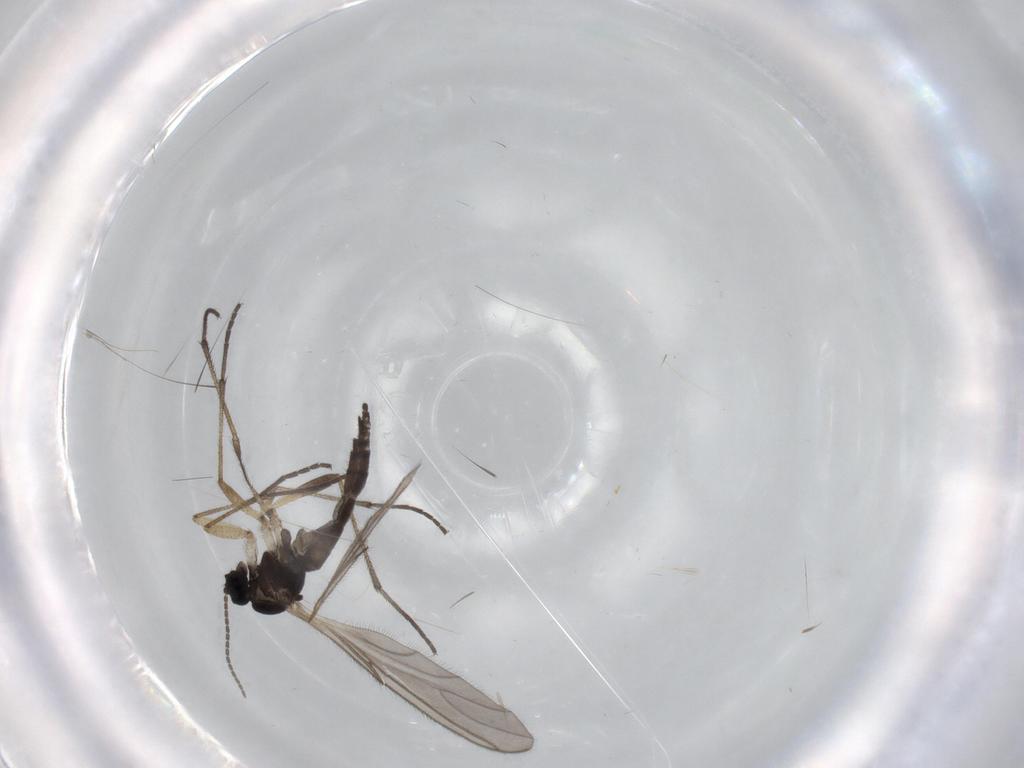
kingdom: Animalia
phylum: Arthropoda
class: Insecta
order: Diptera
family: Sciaridae
